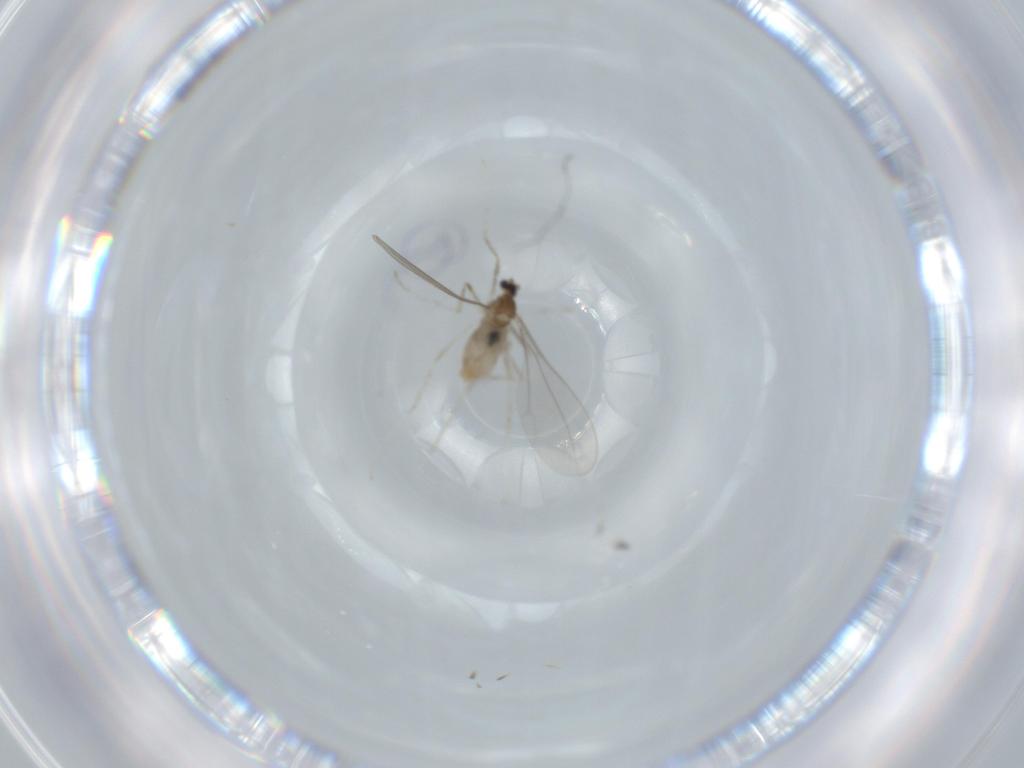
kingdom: Animalia
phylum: Arthropoda
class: Insecta
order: Diptera
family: Cecidomyiidae
